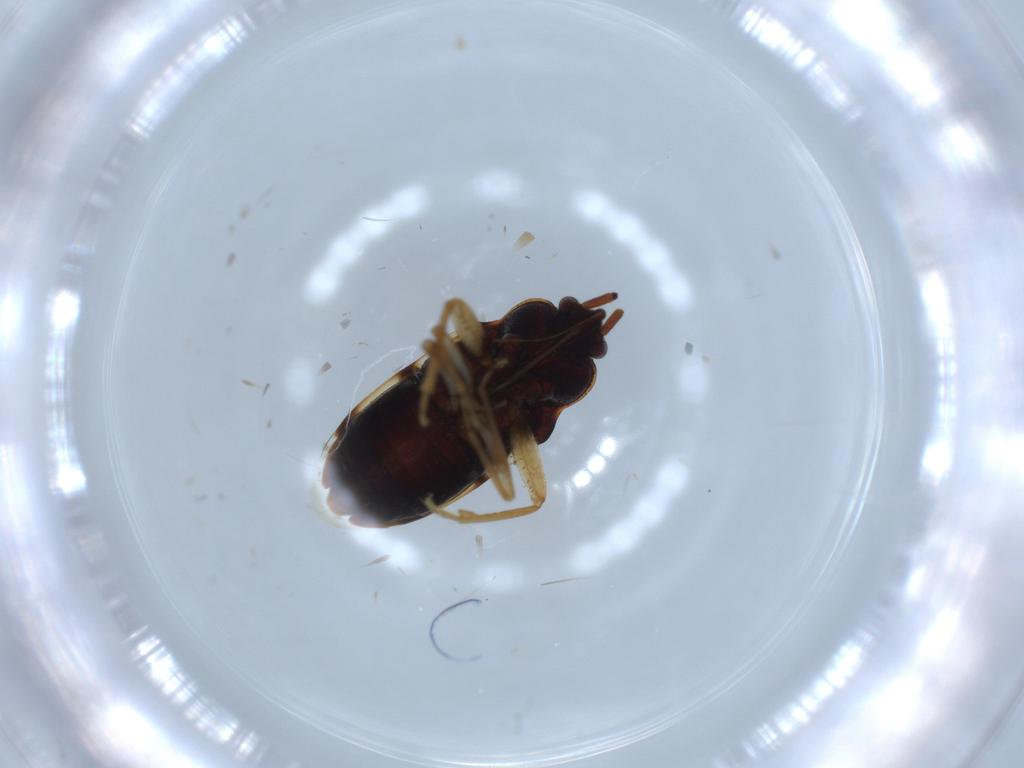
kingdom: Animalia
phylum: Arthropoda
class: Insecta
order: Hemiptera
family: Rhyparochromidae
